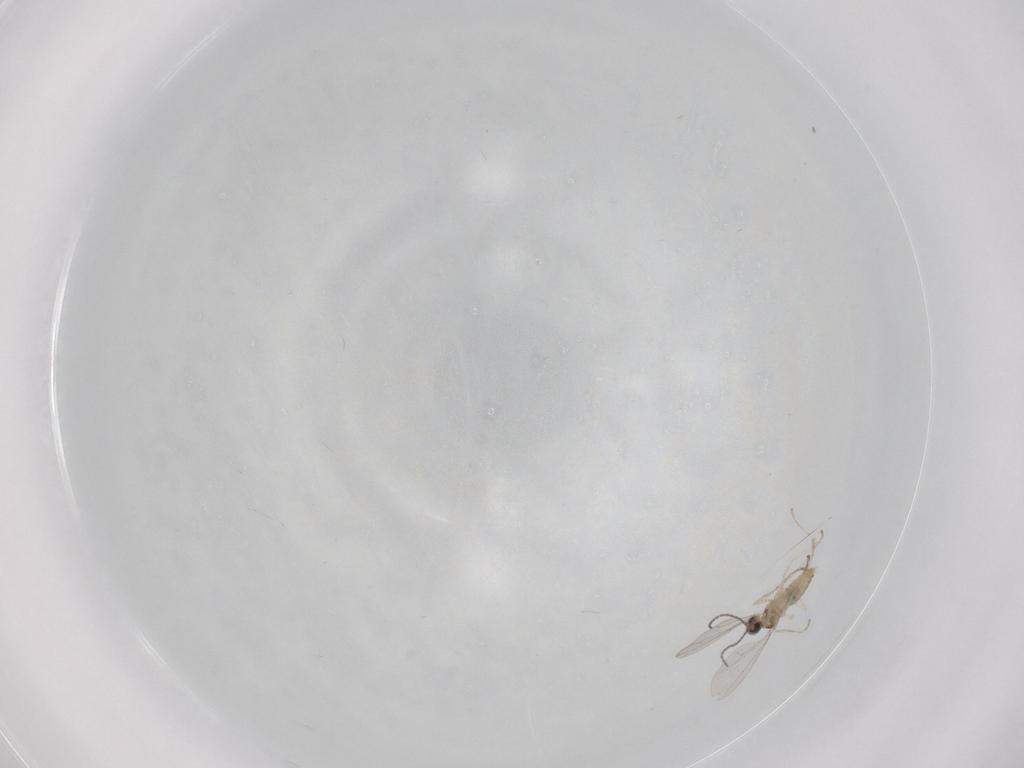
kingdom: Animalia
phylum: Arthropoda
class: Insecta
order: Diptera
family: Cecidomyiidae
